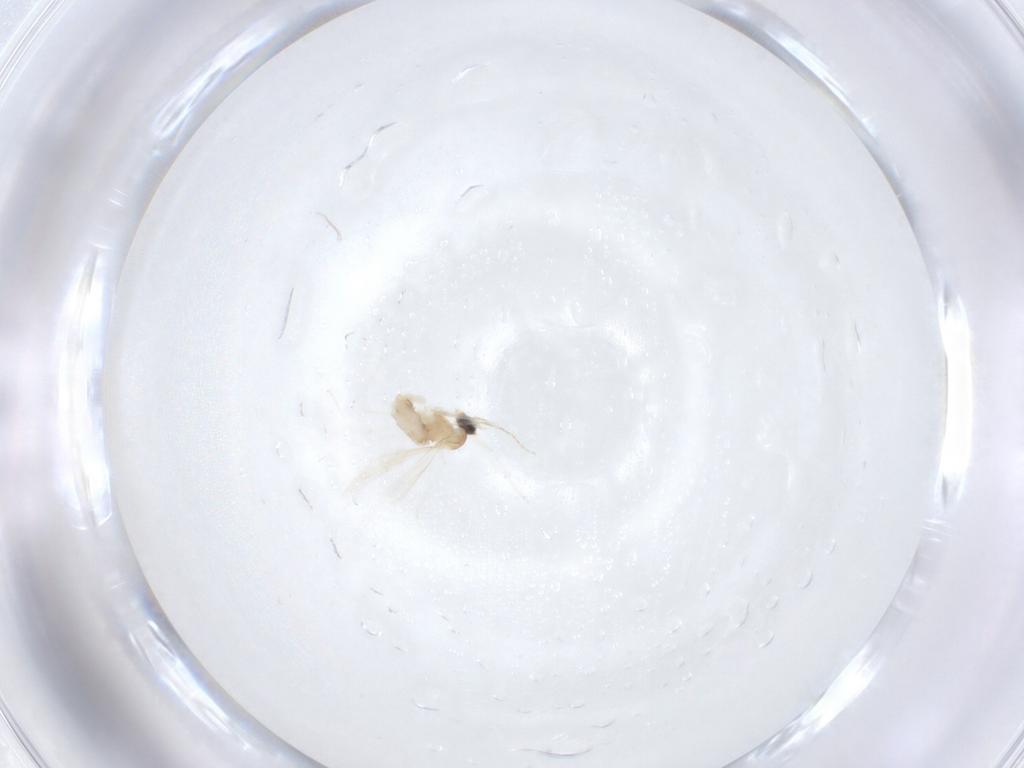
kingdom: Animalia
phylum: Arthropoda
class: Insecta
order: Diptera
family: Cecidomyiidae
